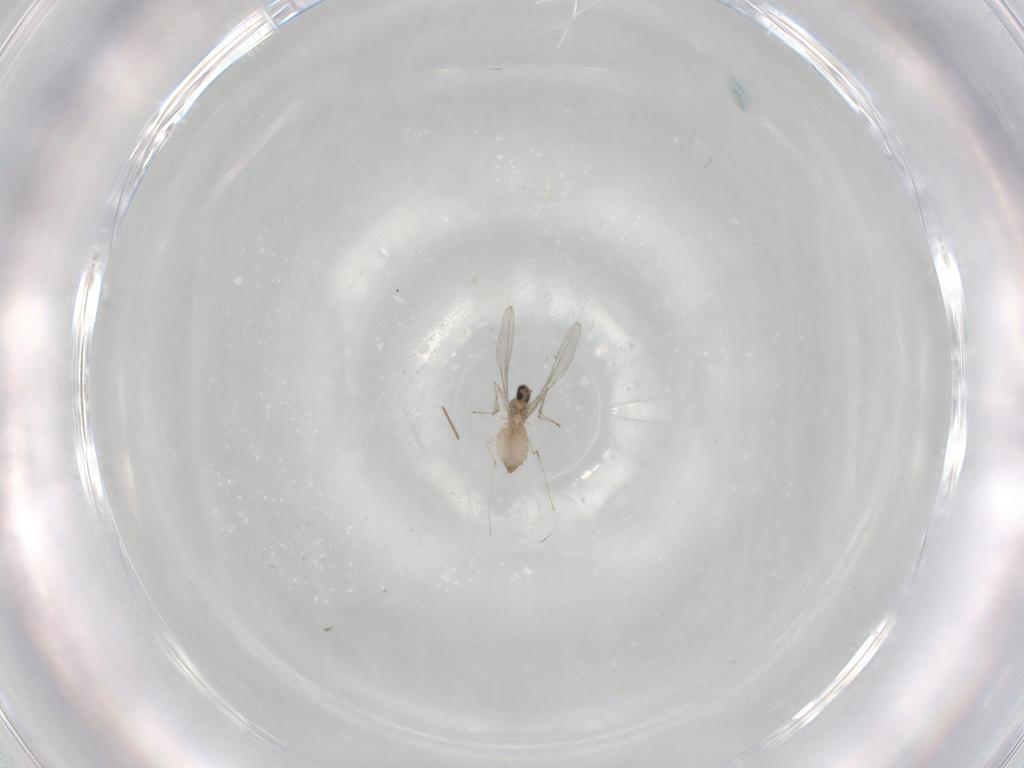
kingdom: Animalia
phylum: Arthropoda
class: Insecta
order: Diptera
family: Cecidomyiidae
